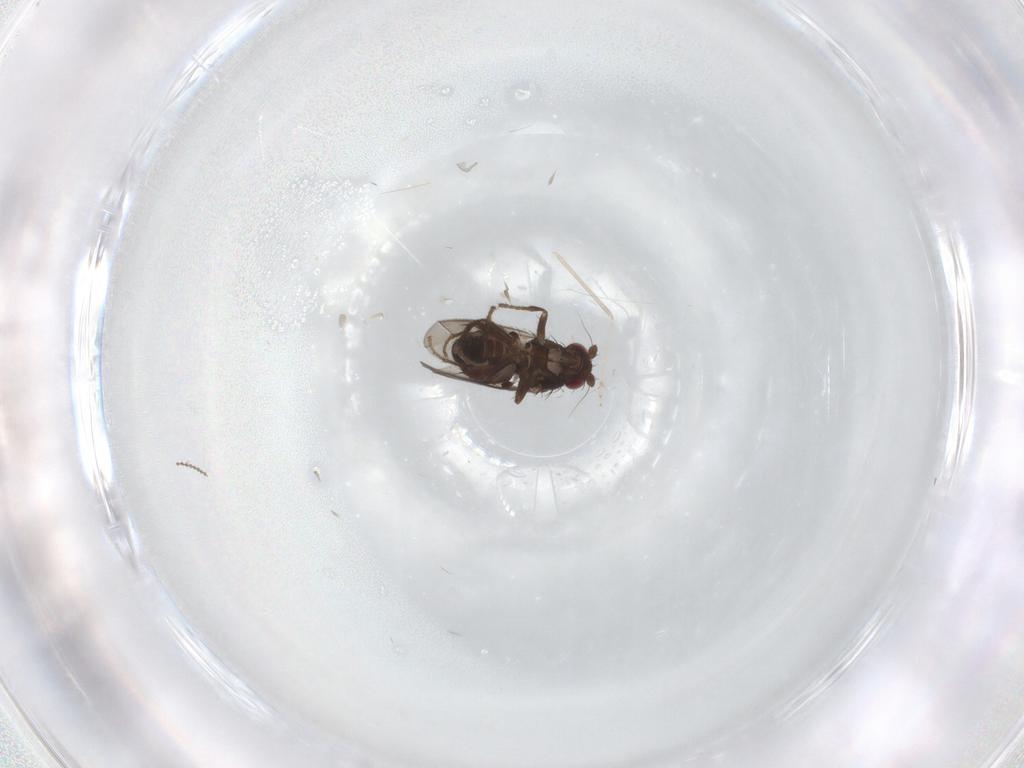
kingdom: Animalia
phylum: Arthropoda
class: Insecta
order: Diptera
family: Cecidomyiidae
